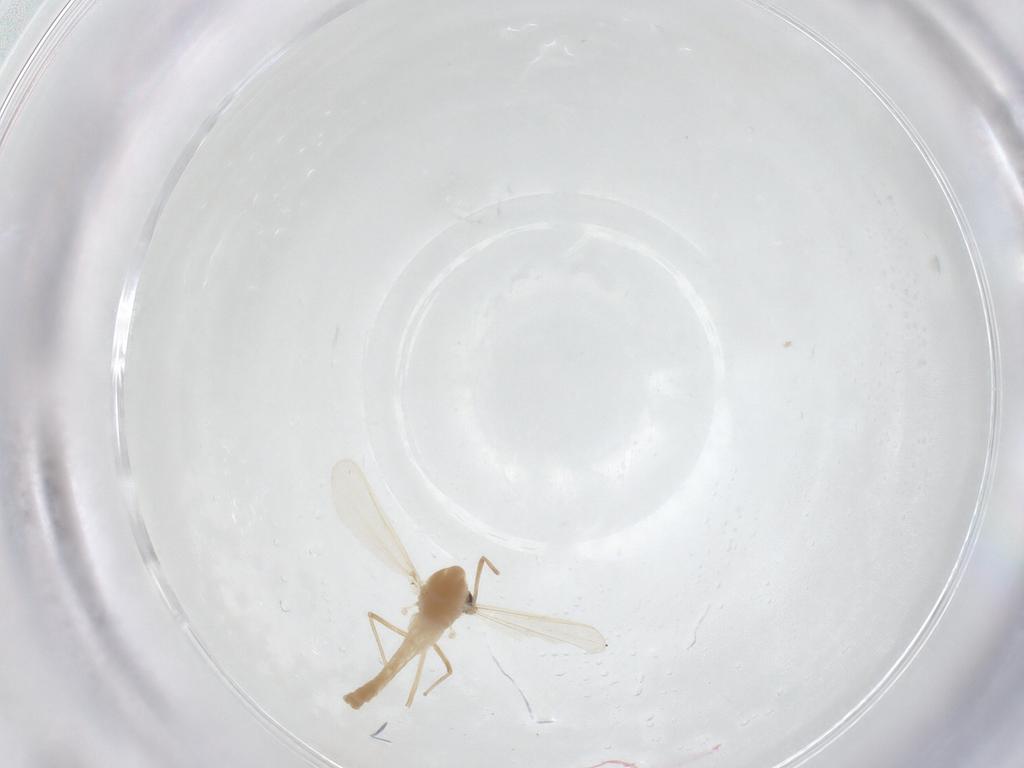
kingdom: Animalia
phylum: Arthropoda
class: Insecta
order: Diptera
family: Chironomidae
